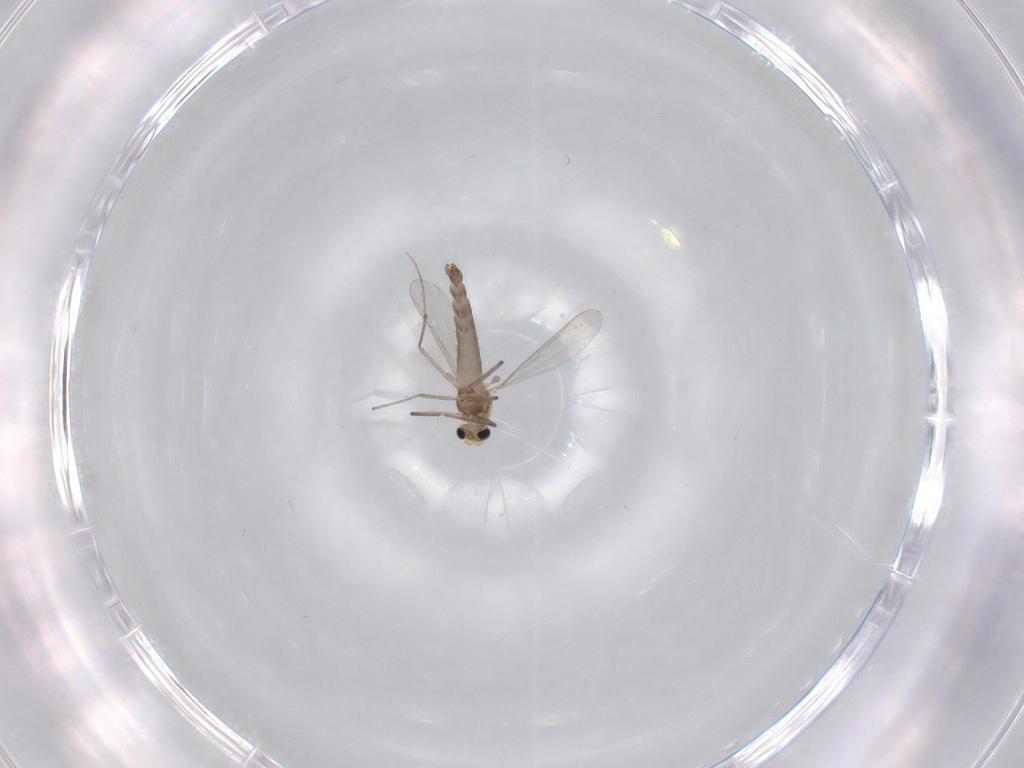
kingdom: Animalia
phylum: Arthropoda
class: Insecta
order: Diptera
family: Chironomidae
